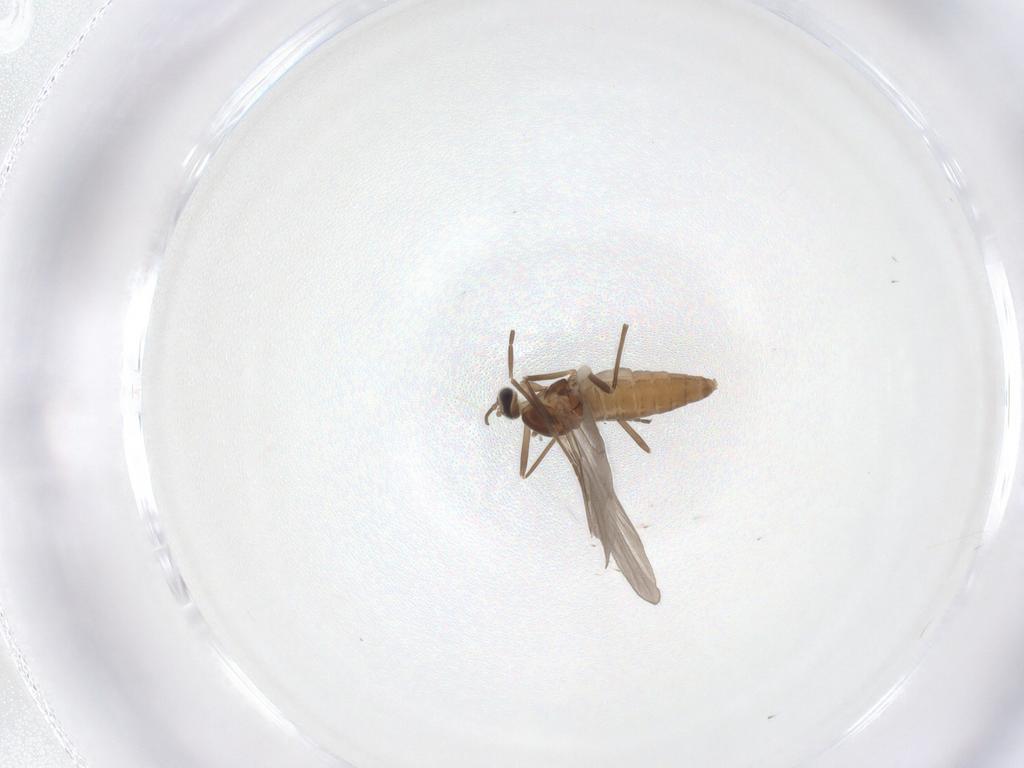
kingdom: Animalia
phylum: Arthropoda
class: Insecta
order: Diptera
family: Cecidomyiidae
